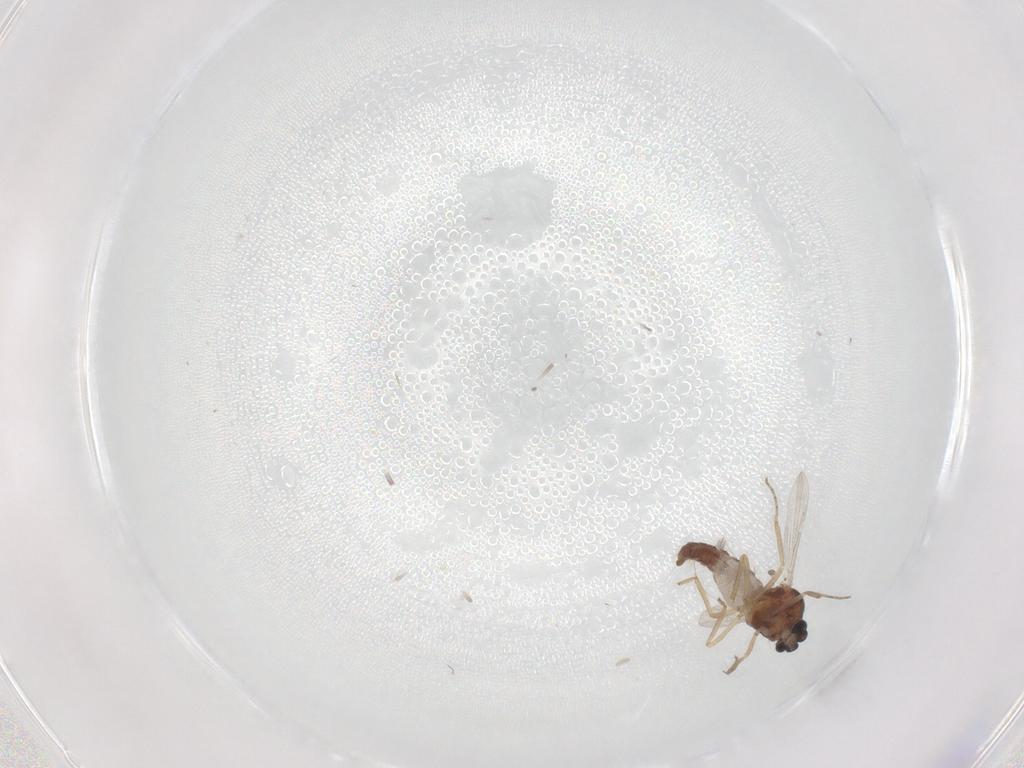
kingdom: Animalia
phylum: Arthropoda
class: Insecta
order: Diptera
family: Ceratopogonidae
